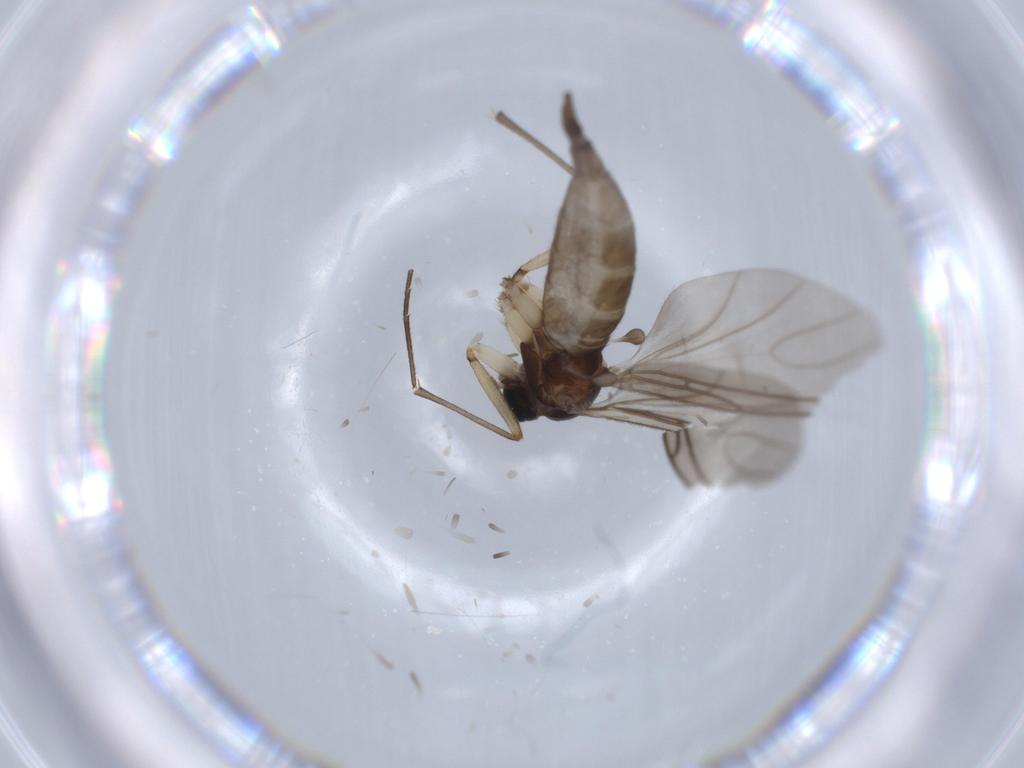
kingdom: Animalia
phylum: Arthropoda
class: Insecta
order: Diptera
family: Sciaridae
